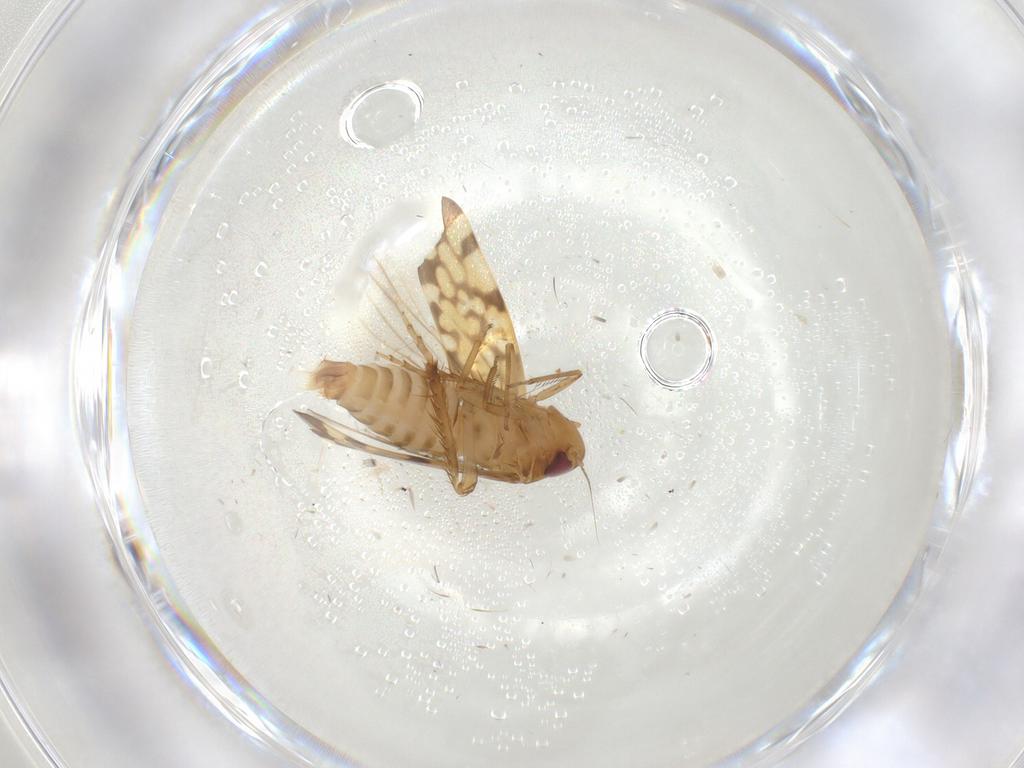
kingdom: Animalia
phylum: Arthropoda
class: Insecta
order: Hemiptera
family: Cicadellidae
